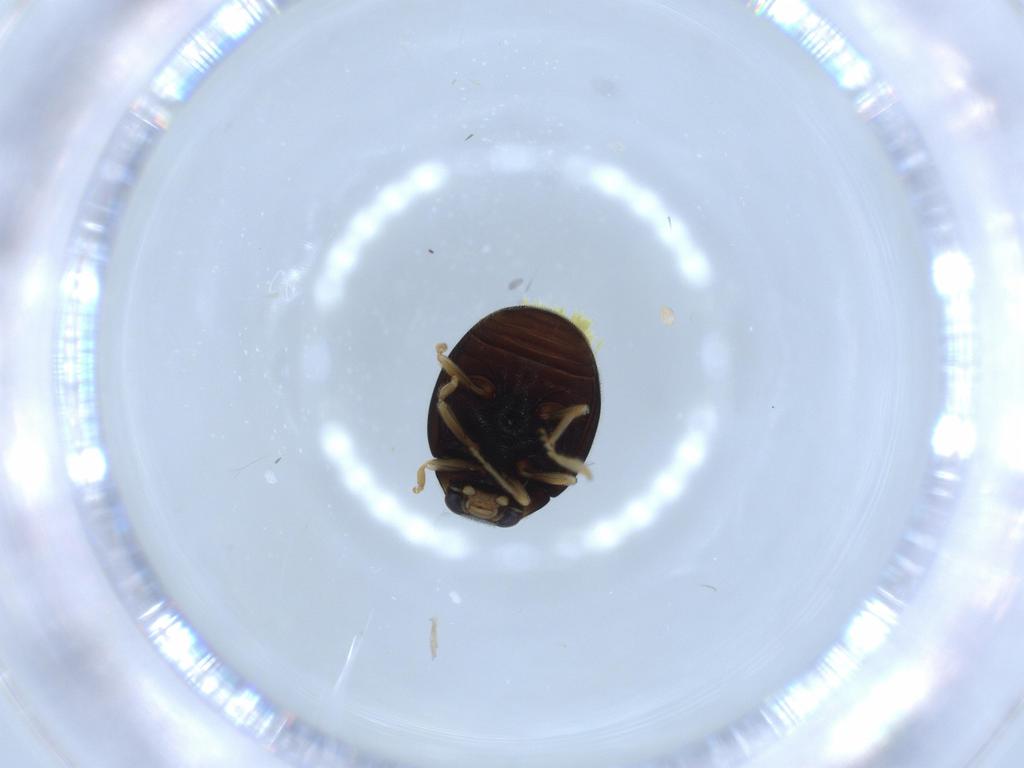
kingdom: Animalia
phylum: Arthropoda
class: Insecta
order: Coleoptera
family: Coccinellidae
